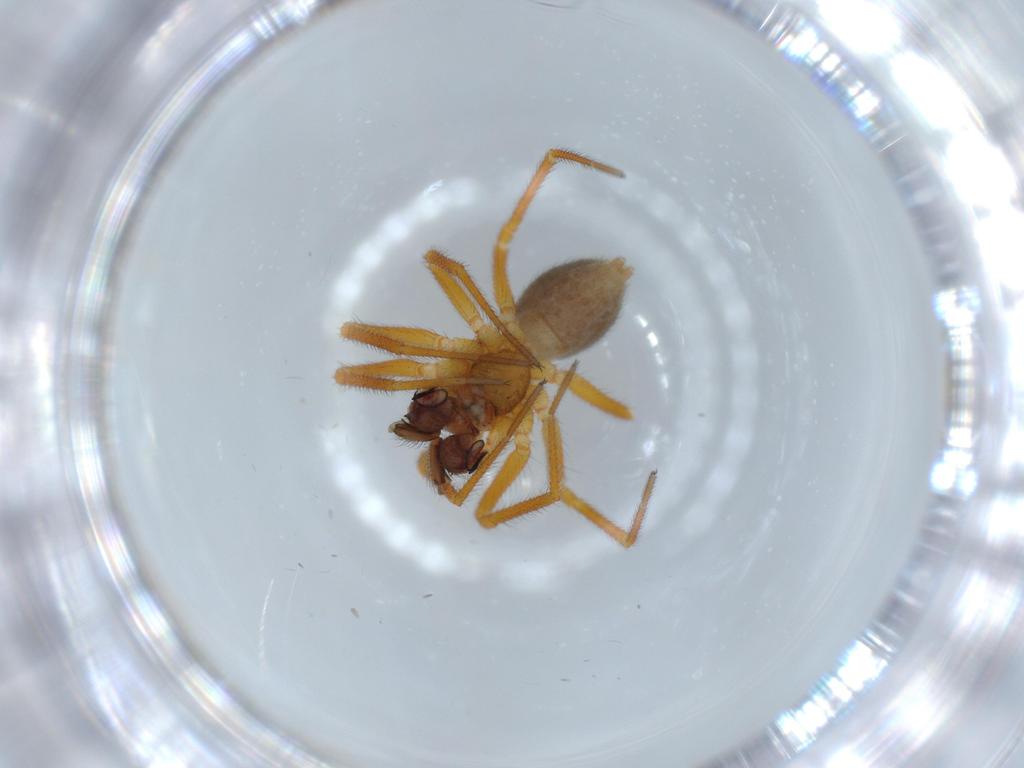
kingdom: Animalia
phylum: Arthropoda
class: Arachnida
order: Araneae
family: Linyphiidae
